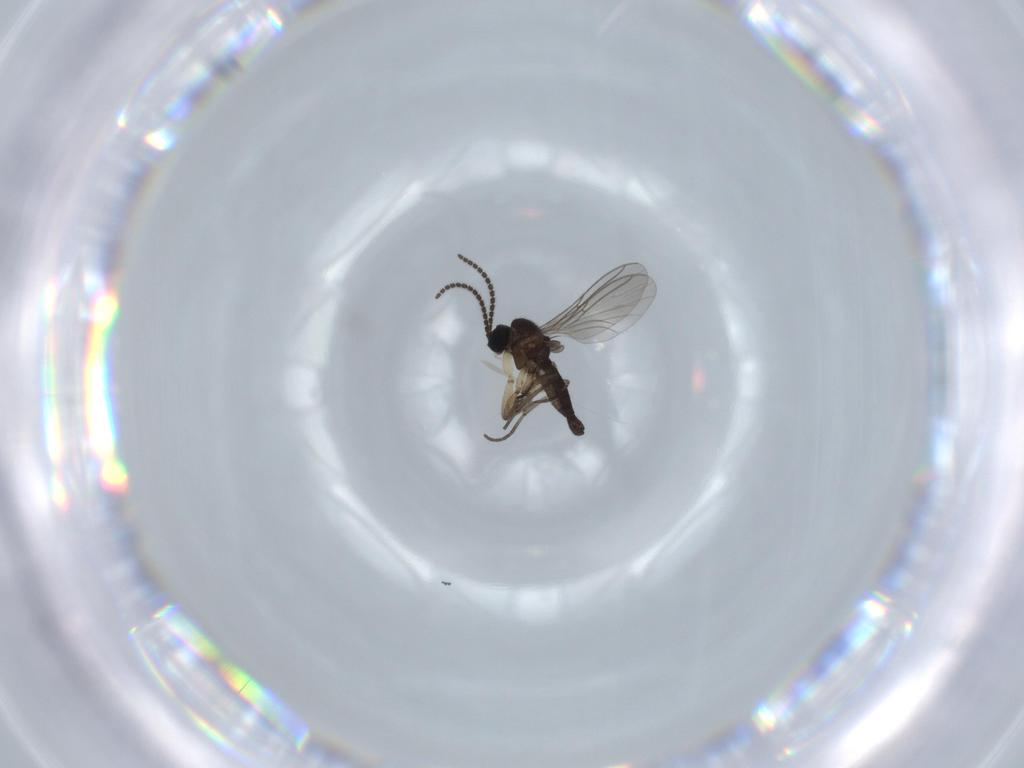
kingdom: Animalia
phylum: Arthropoda
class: Insecta
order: Diptera
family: Sciaridae
